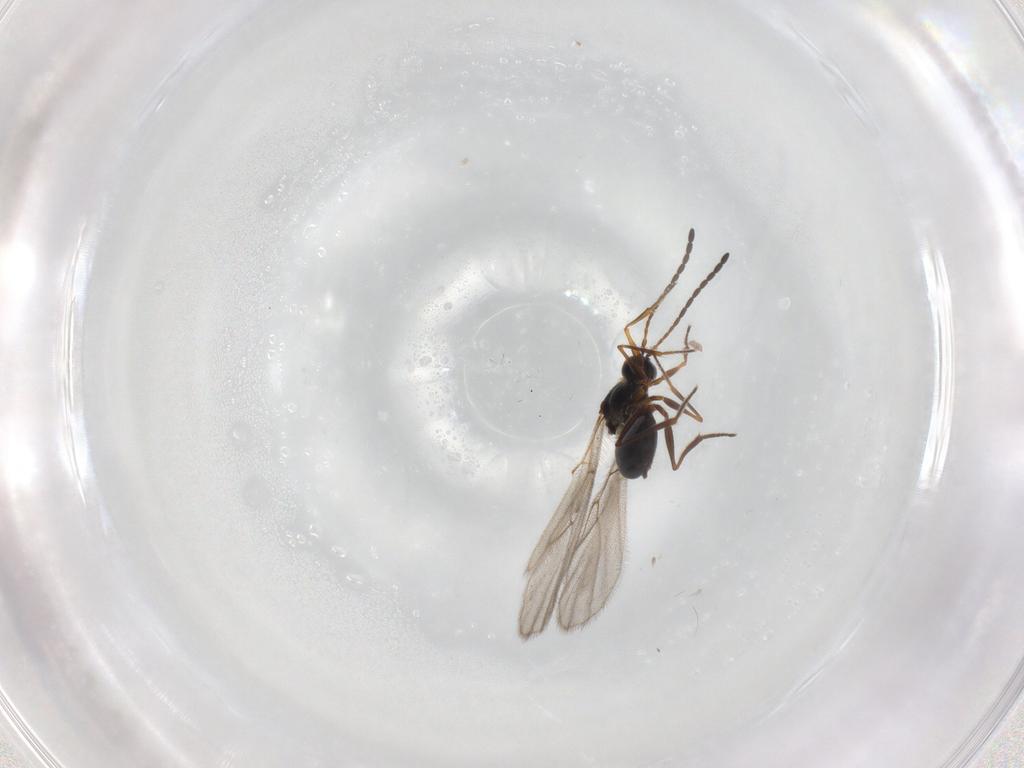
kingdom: Animalia
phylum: Arthropoda
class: Insecta
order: Hymenoptera
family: Figitidae
